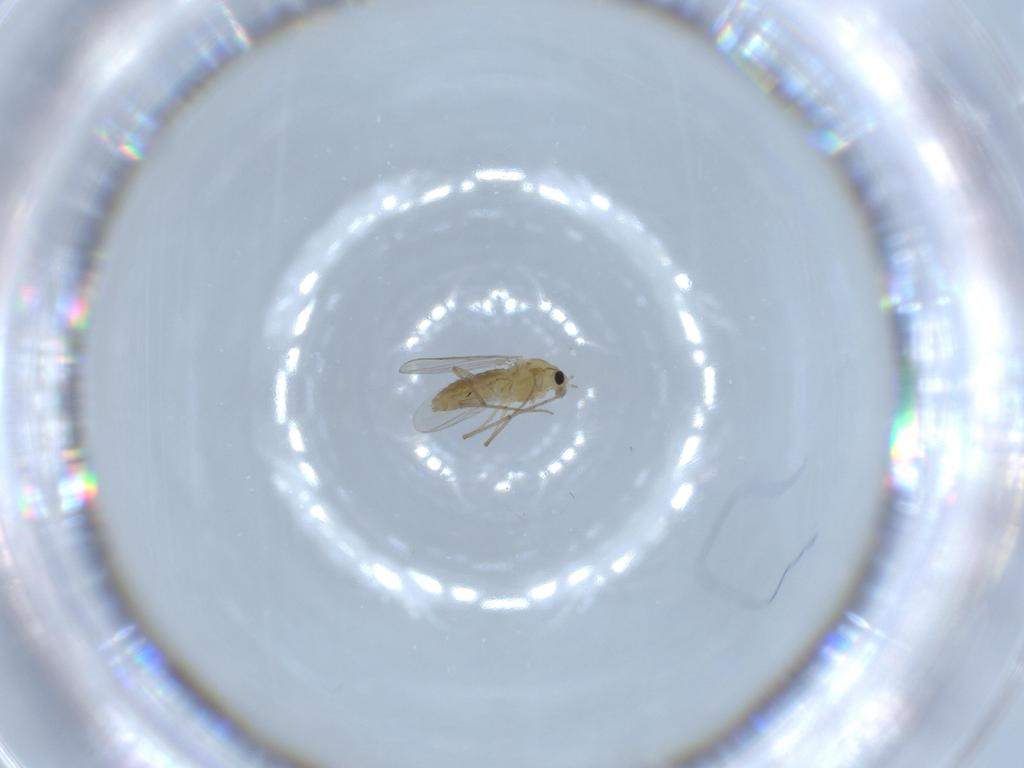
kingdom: Animalia
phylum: Arthropoda
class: Insecta
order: Diptera
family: Chironomidae
